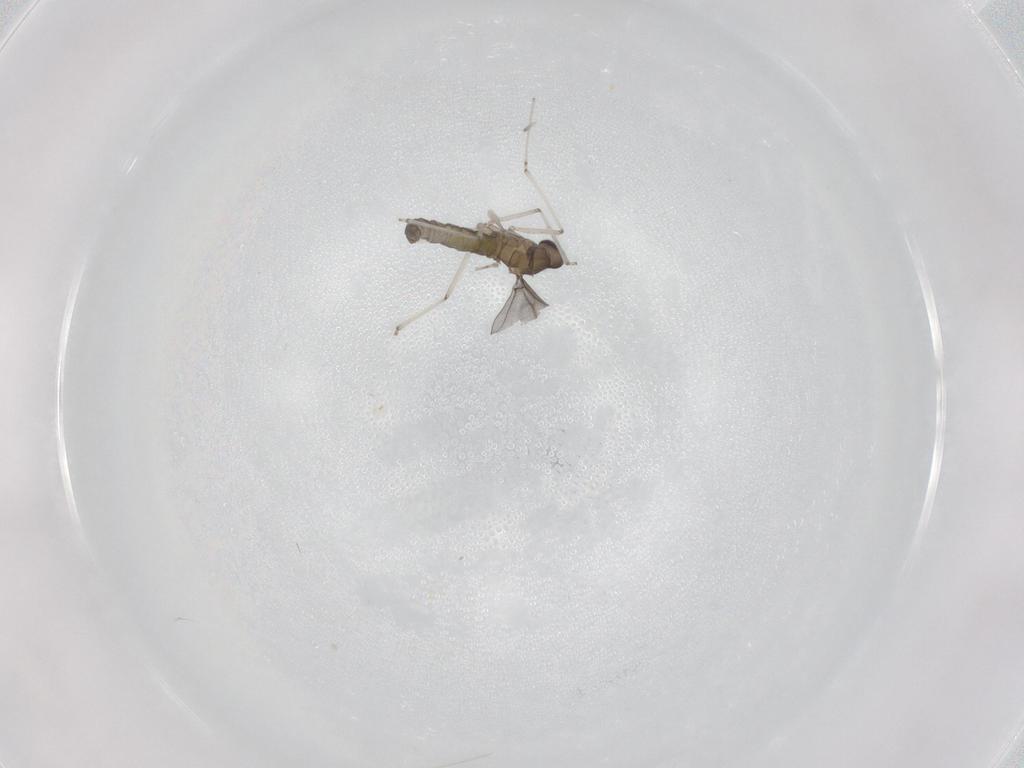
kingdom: Animalia
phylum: Arthropoda
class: Insecta
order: Diptera
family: Cecidomyiidae
